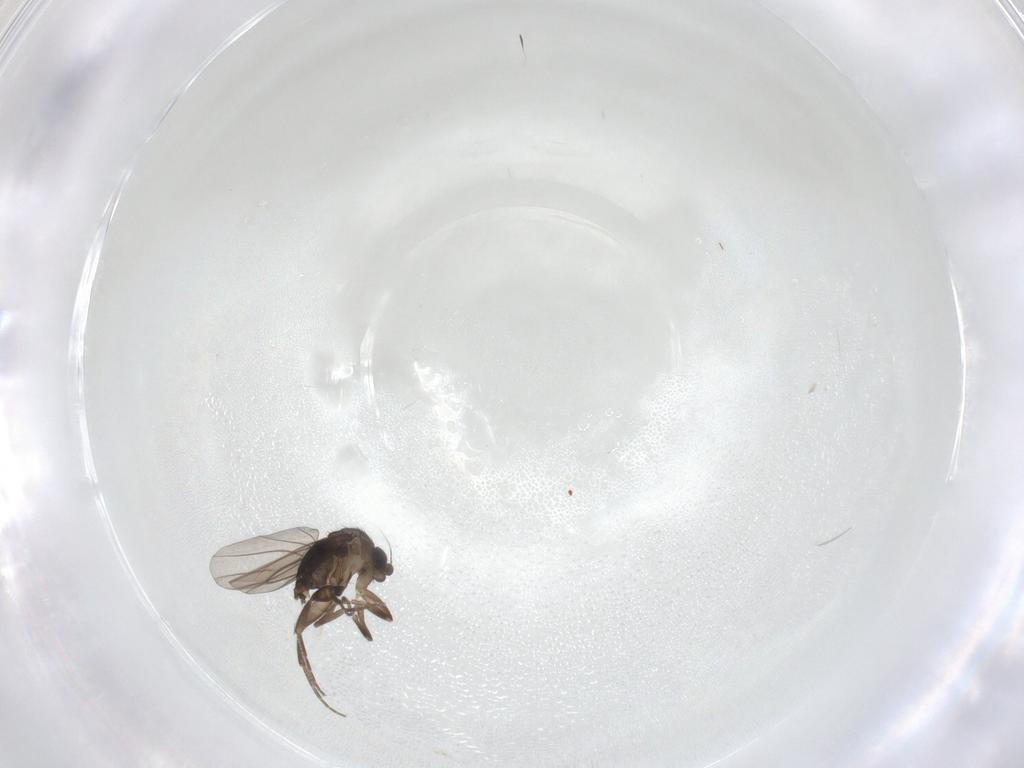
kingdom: Animalia
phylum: Arthropoda
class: Insecta
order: Diptera
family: Phoridae
